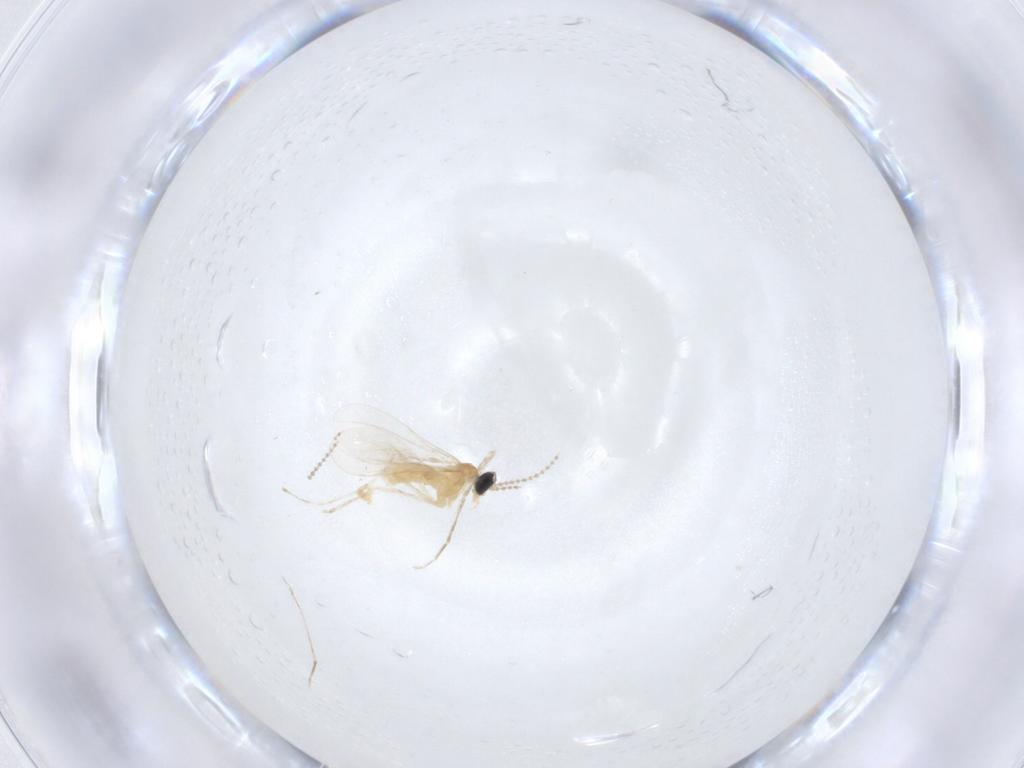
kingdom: Animalia
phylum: Arthropoda
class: Insecta
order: Diptera
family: Cecidomyiidae
